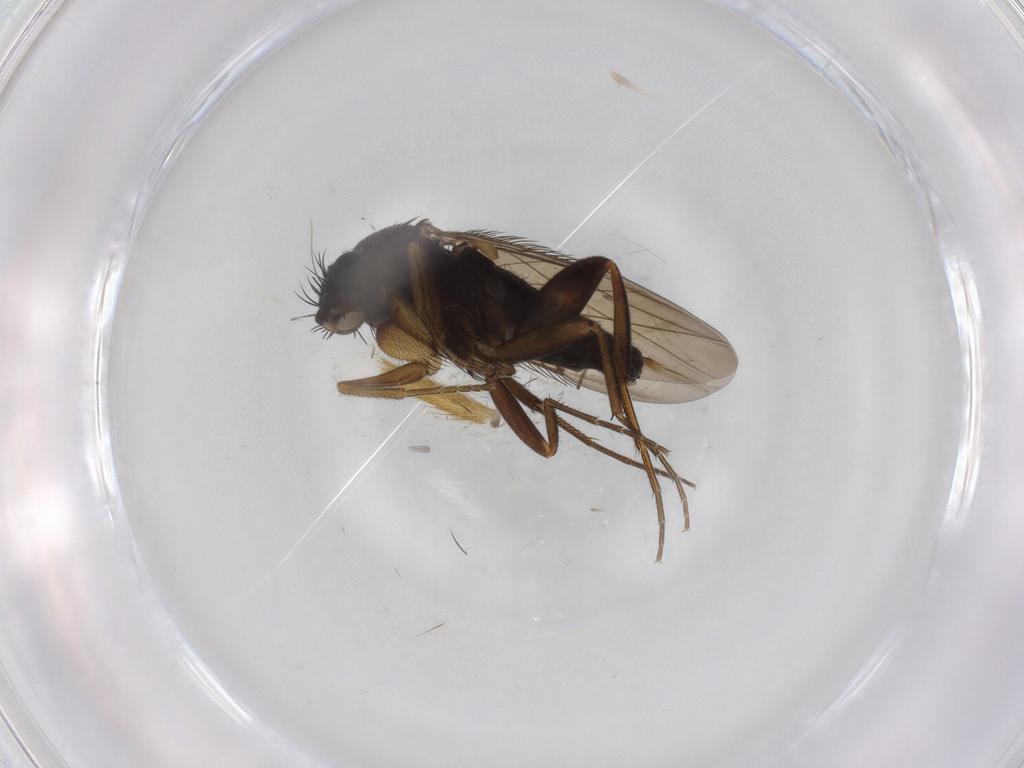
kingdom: Animalia
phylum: Arthropoda
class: Insecta
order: Diptera
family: Phoridae
